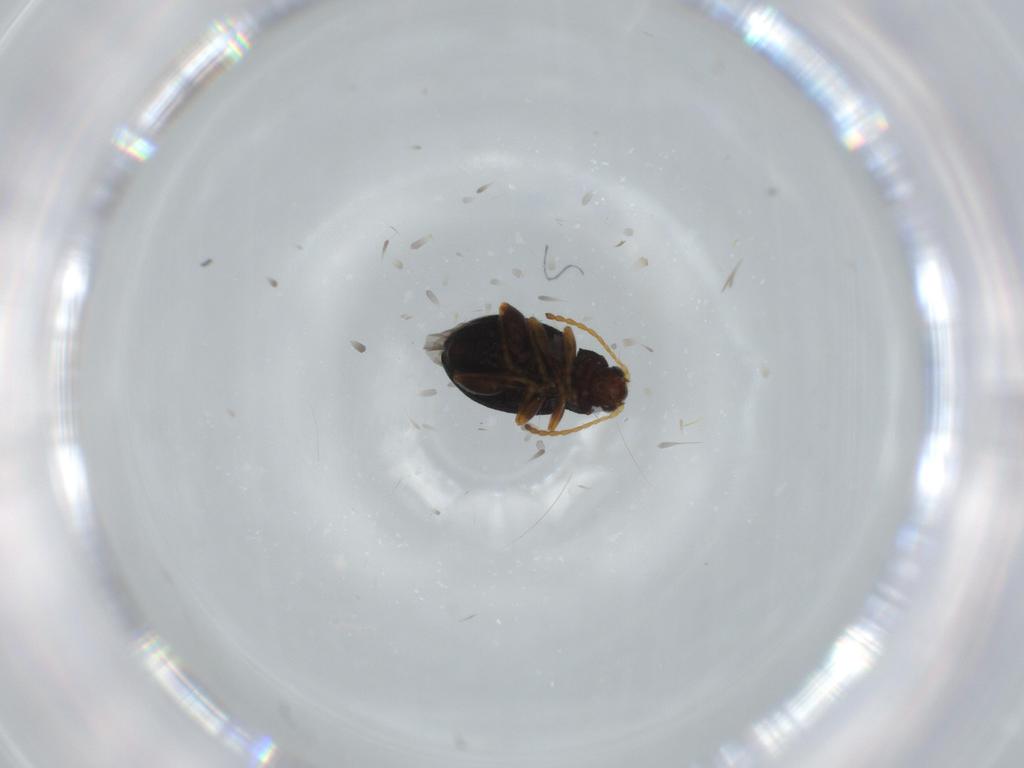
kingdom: Animalia
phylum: Arthropoda
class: Insecta
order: Coleoptera
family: Chrysomelidae
